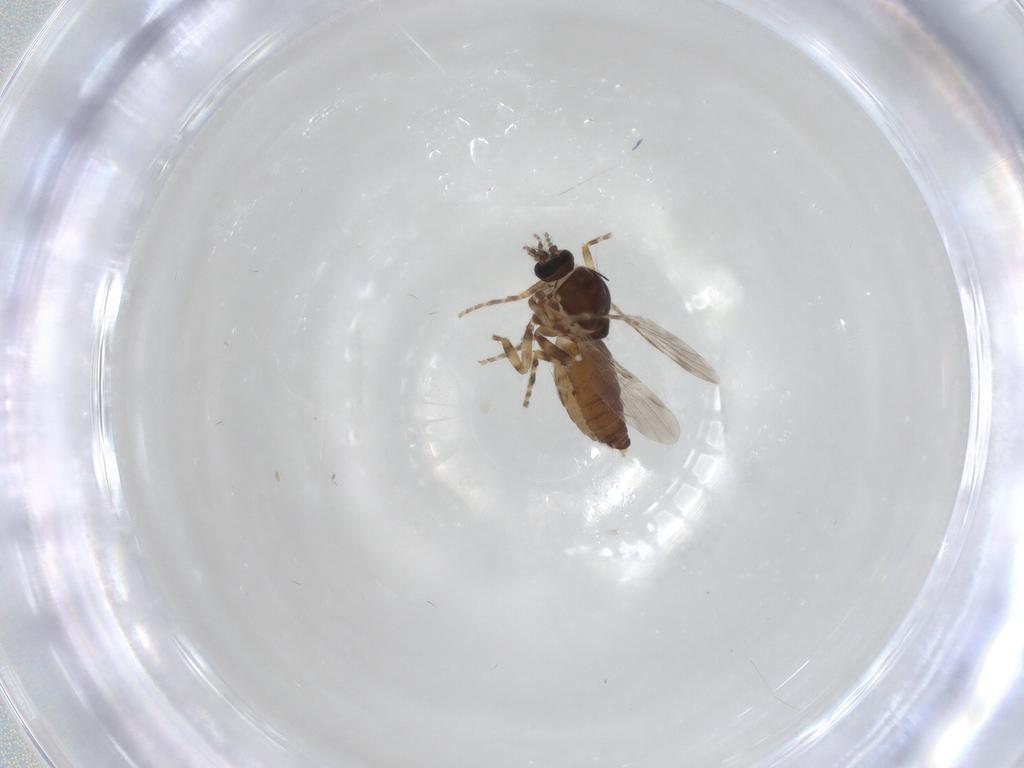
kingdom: Animalia
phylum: Arthropoda
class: Insecta
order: Diptera
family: Ceratopogonidae
